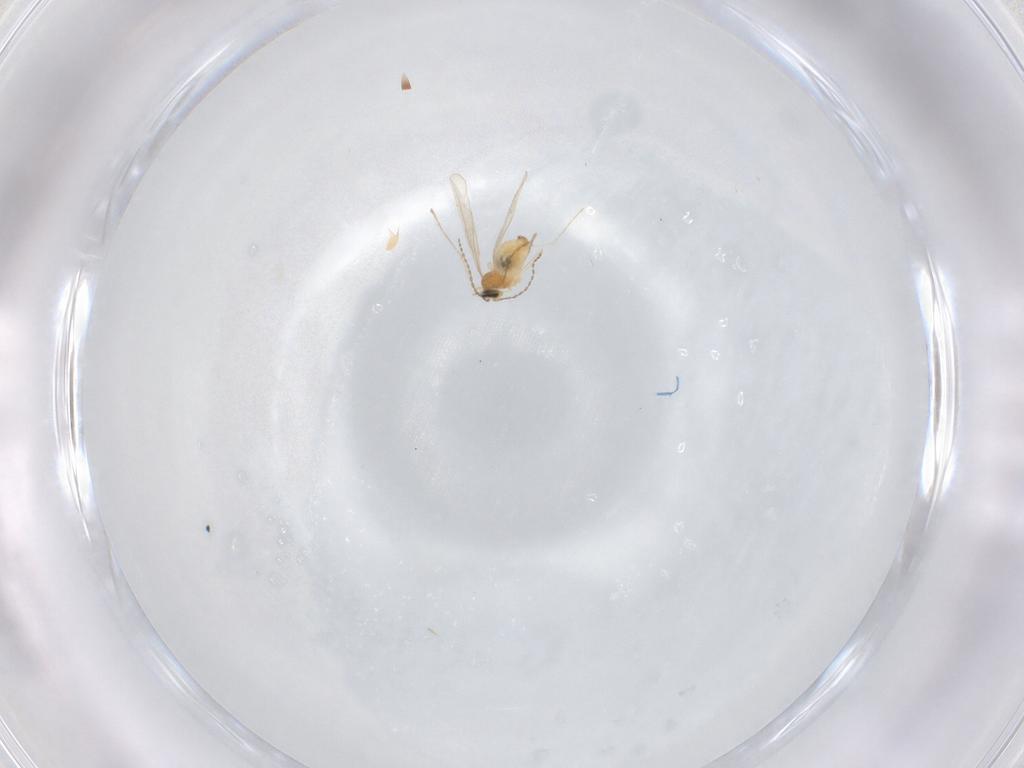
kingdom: Animalia
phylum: Arthropoda
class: Insecta
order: Diptera
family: Cecidomyiidae
